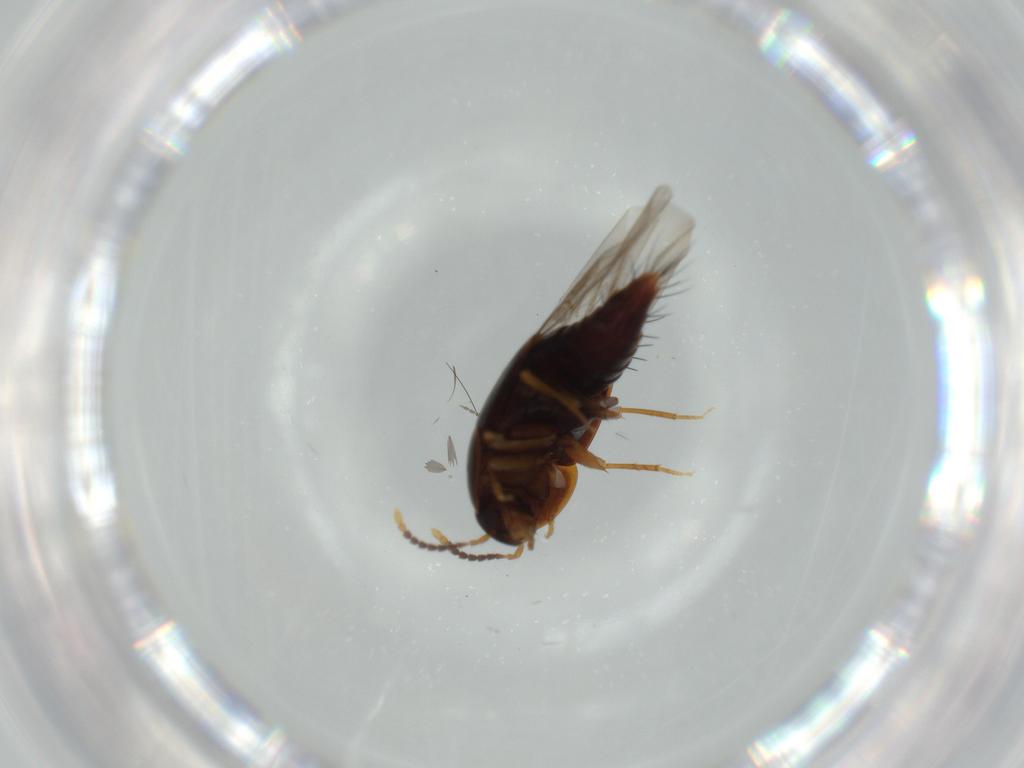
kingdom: Animalia
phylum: Arthropoda
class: Insecta
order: Coleoptera
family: Staphylinidae
